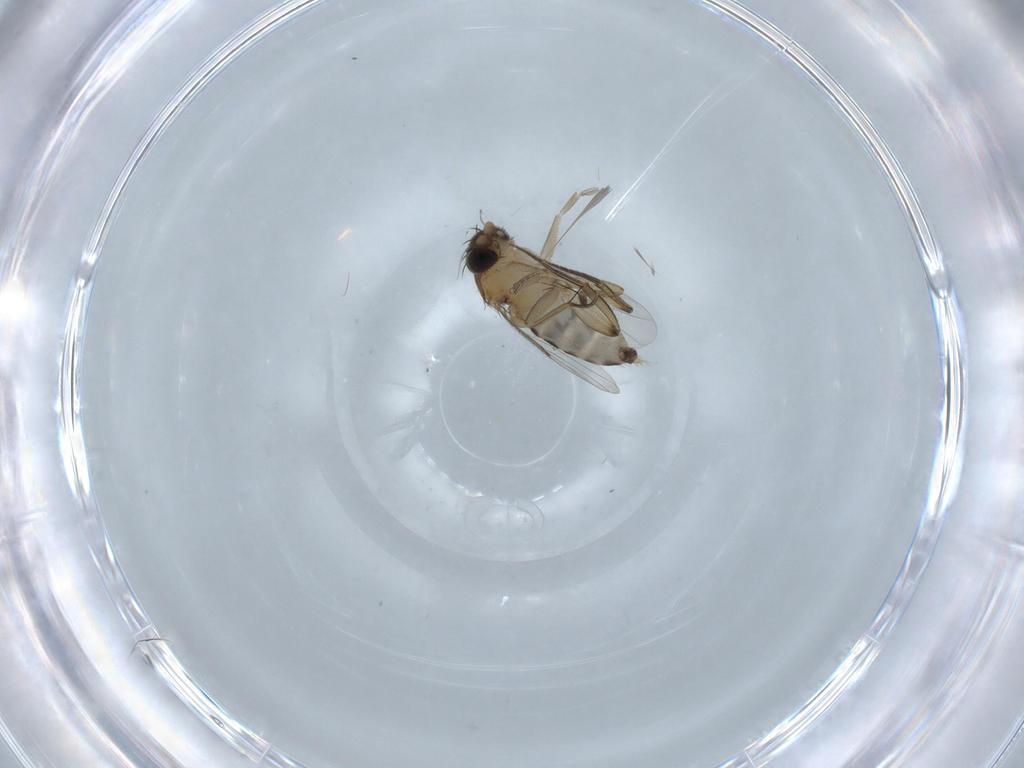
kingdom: Animalia
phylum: Arthropoda
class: Insecta
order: Diptera
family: Phoridae
